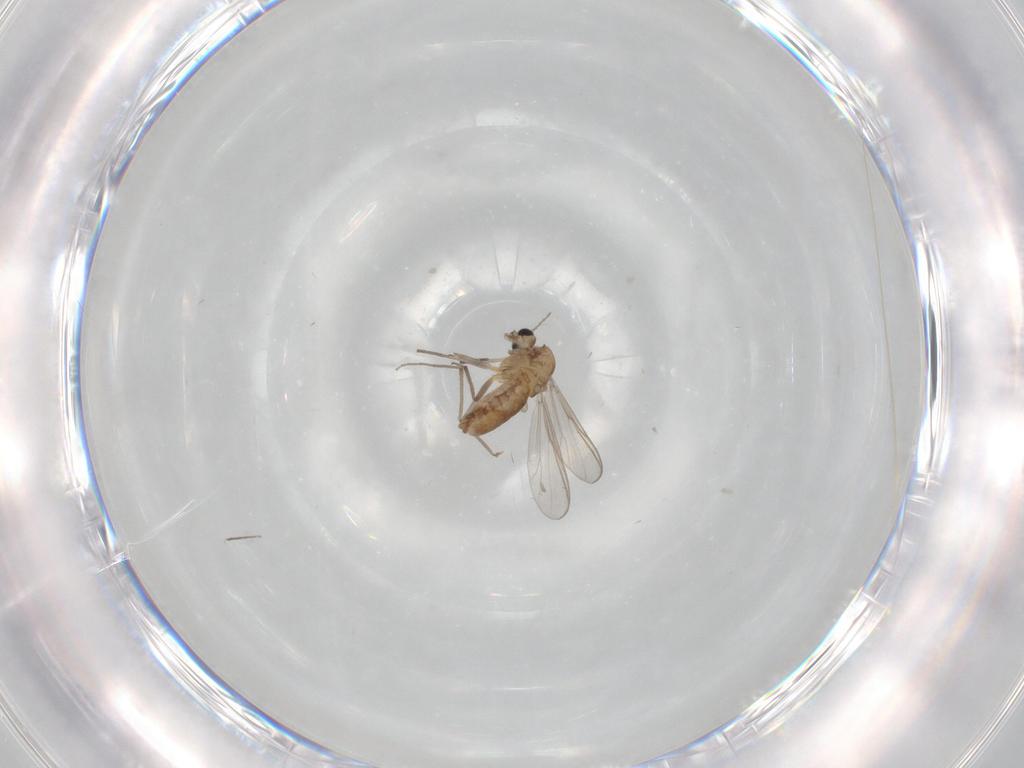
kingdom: Animalia
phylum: Arthropoda
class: Insecta
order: Diptera
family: Chironomidae
